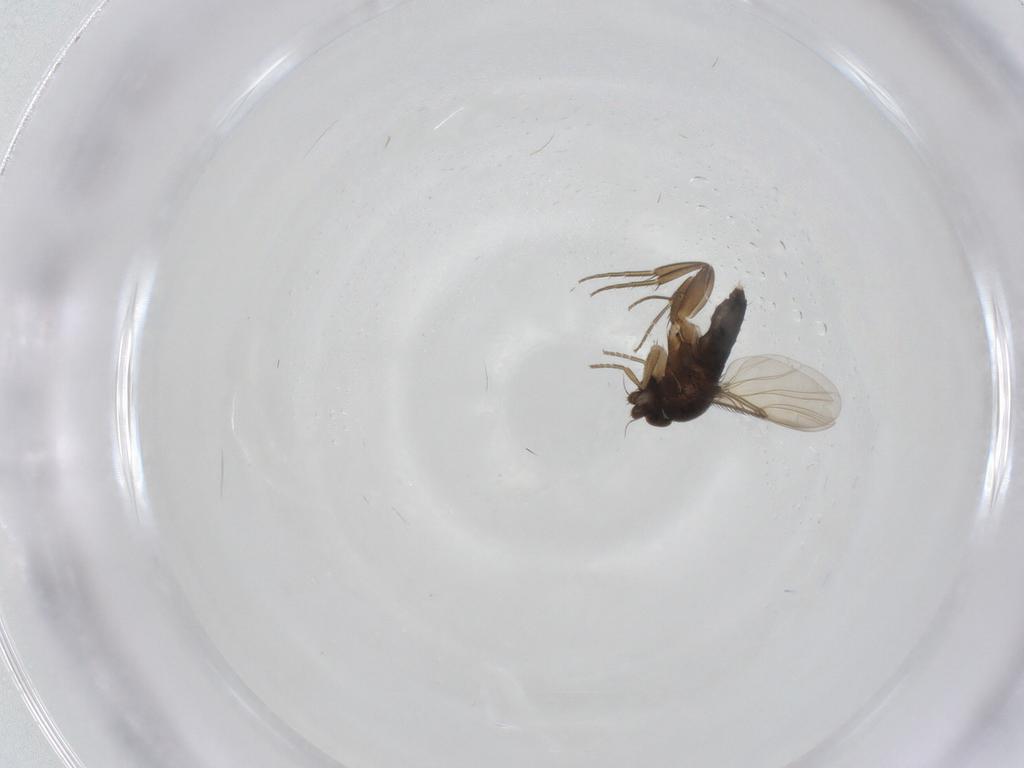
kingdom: Animalia
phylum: Arthropoda
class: Insecta
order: Diptera
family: Phoridae
